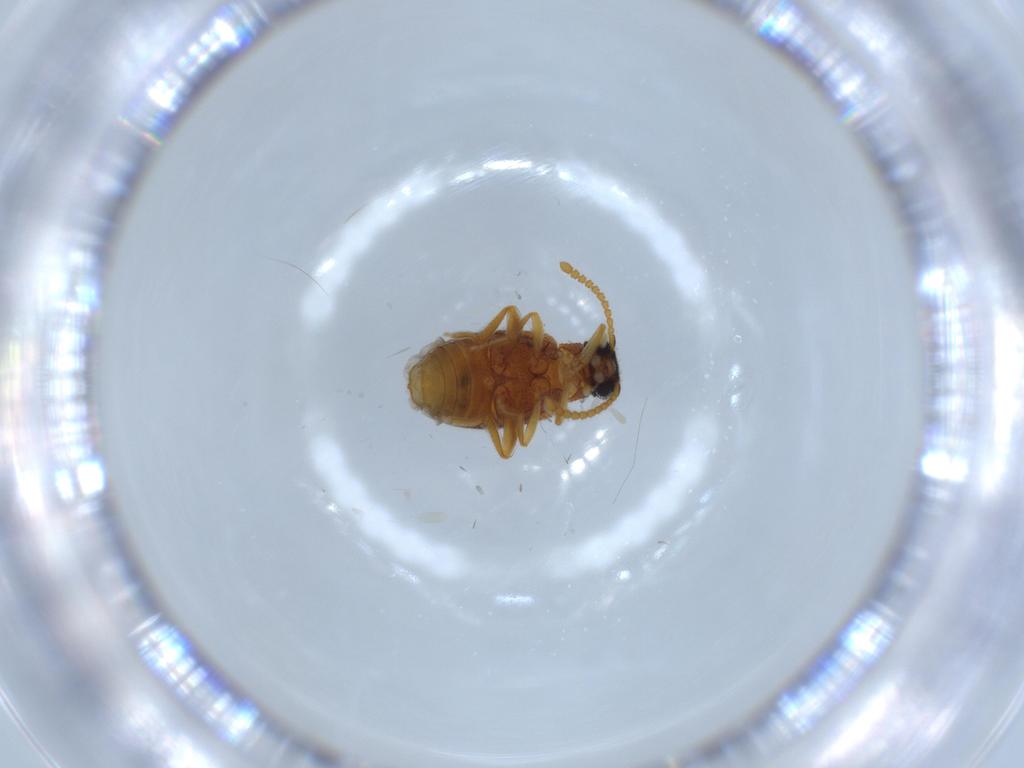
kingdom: Animalia
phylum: Arthropoda
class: Insecta
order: Coleoptera
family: Aderidae
